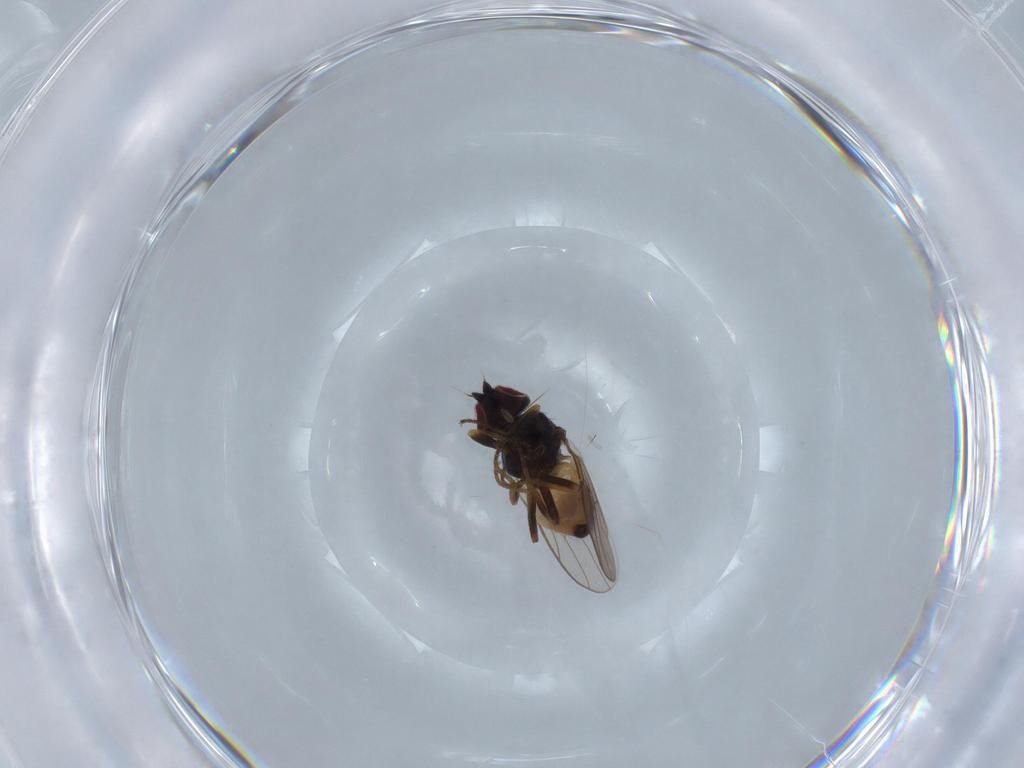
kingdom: Animalia
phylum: Arthropoda
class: Insecta
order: Diptera
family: Chloropidae
